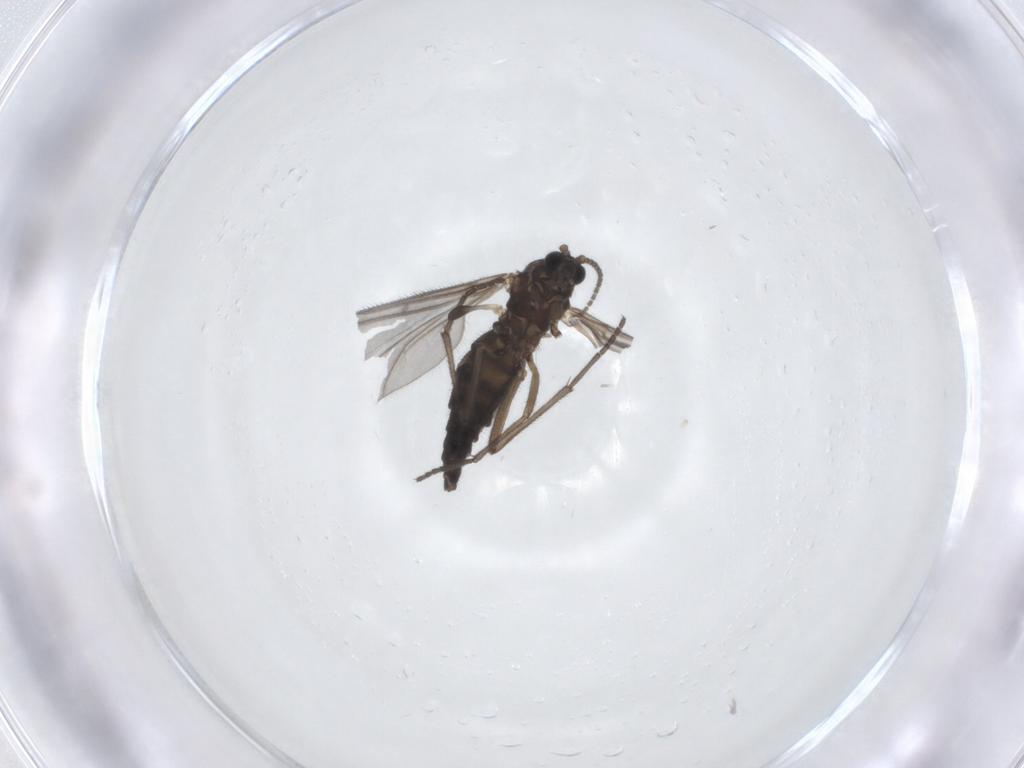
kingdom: Animalia
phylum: Arthropoda
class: Insecta
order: Diptera
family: Sciaridae
